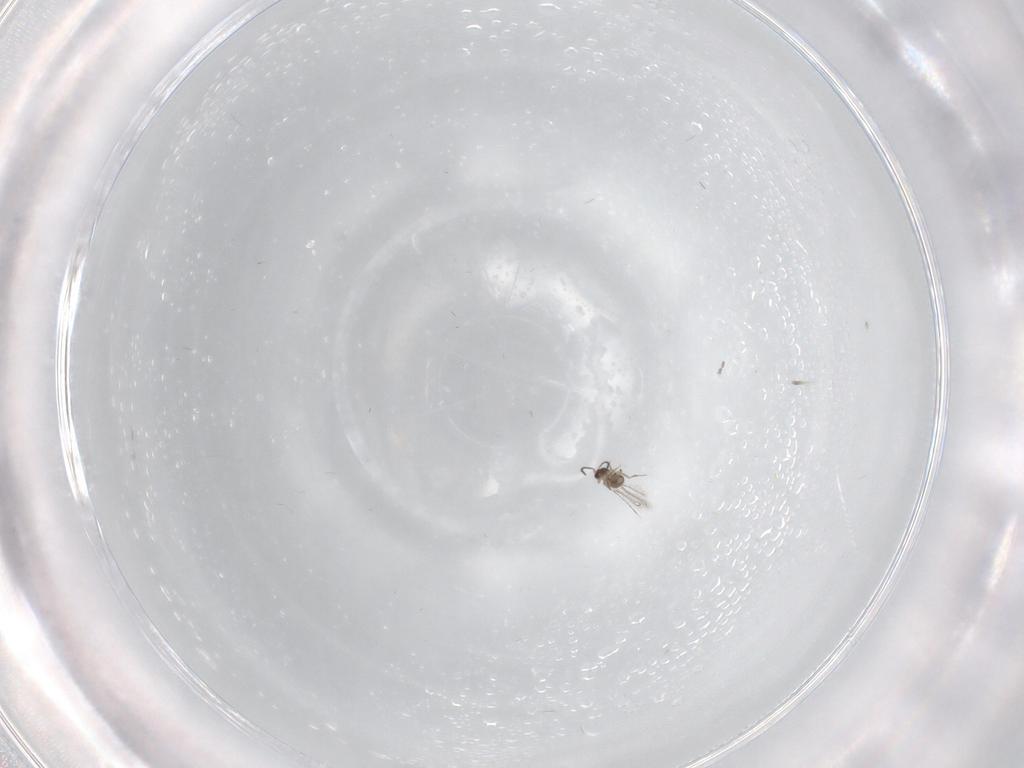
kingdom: Animalia
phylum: Arthropoda
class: Insecta
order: Diptera
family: Psychodidae
